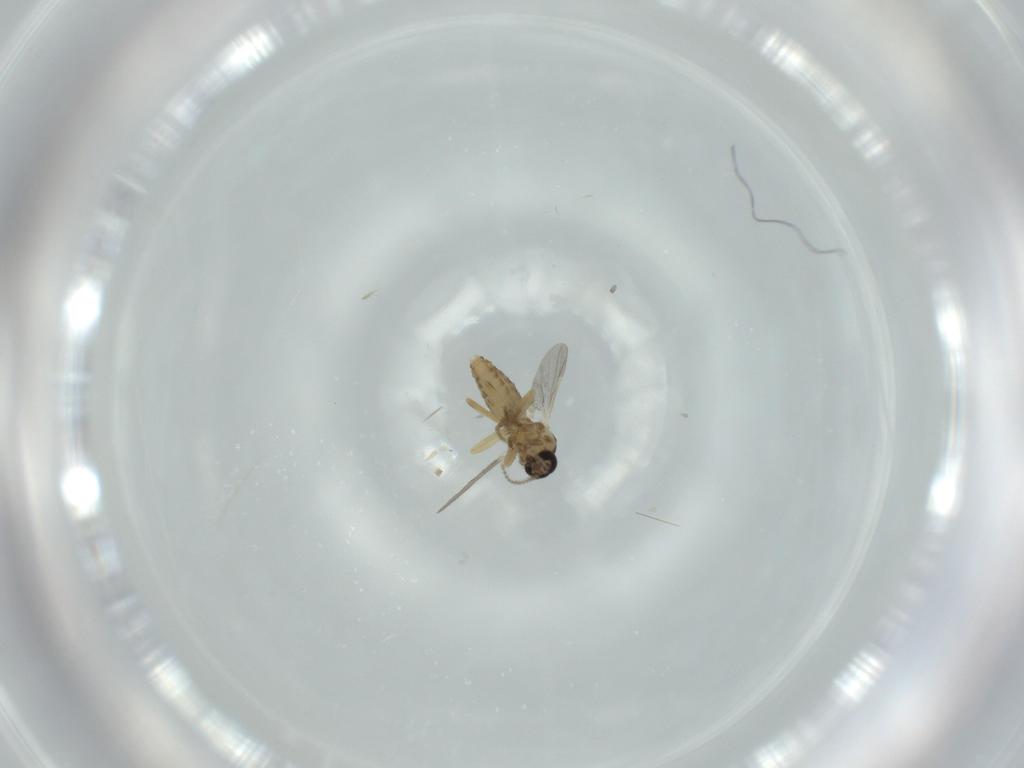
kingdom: Animalia
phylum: Arthropoda
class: Insecta
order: Diptera
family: Ceratopogonidae
